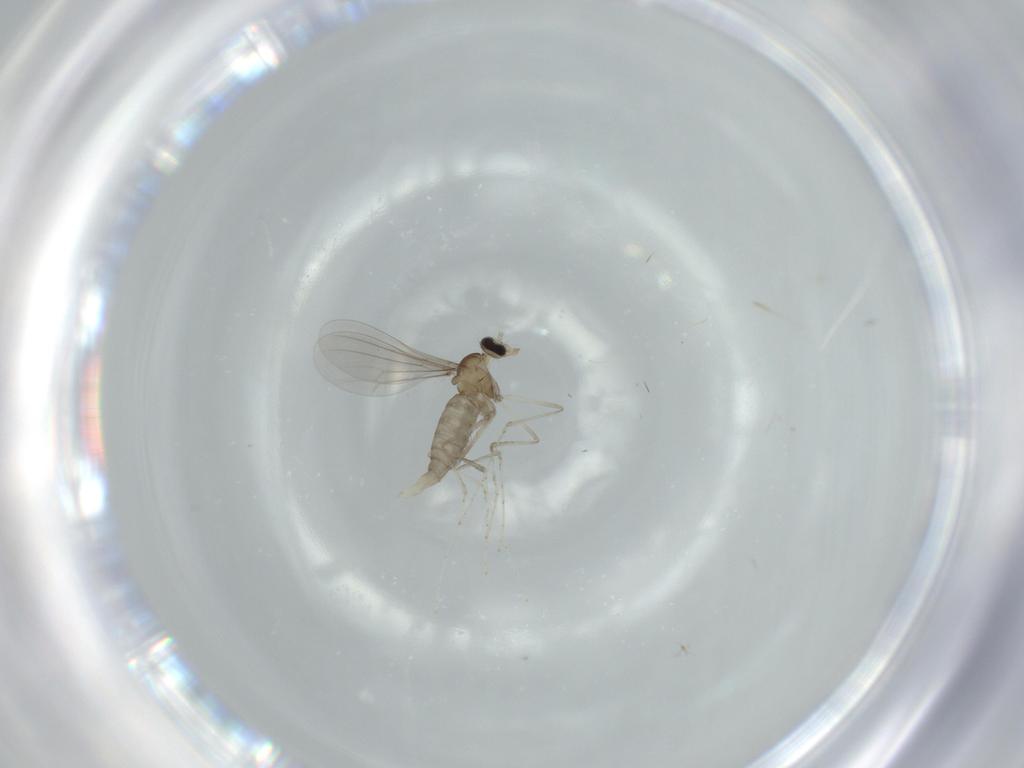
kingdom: Animalia
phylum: Arthropoda
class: Insecta
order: Diptera
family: Cecidomyiidae
